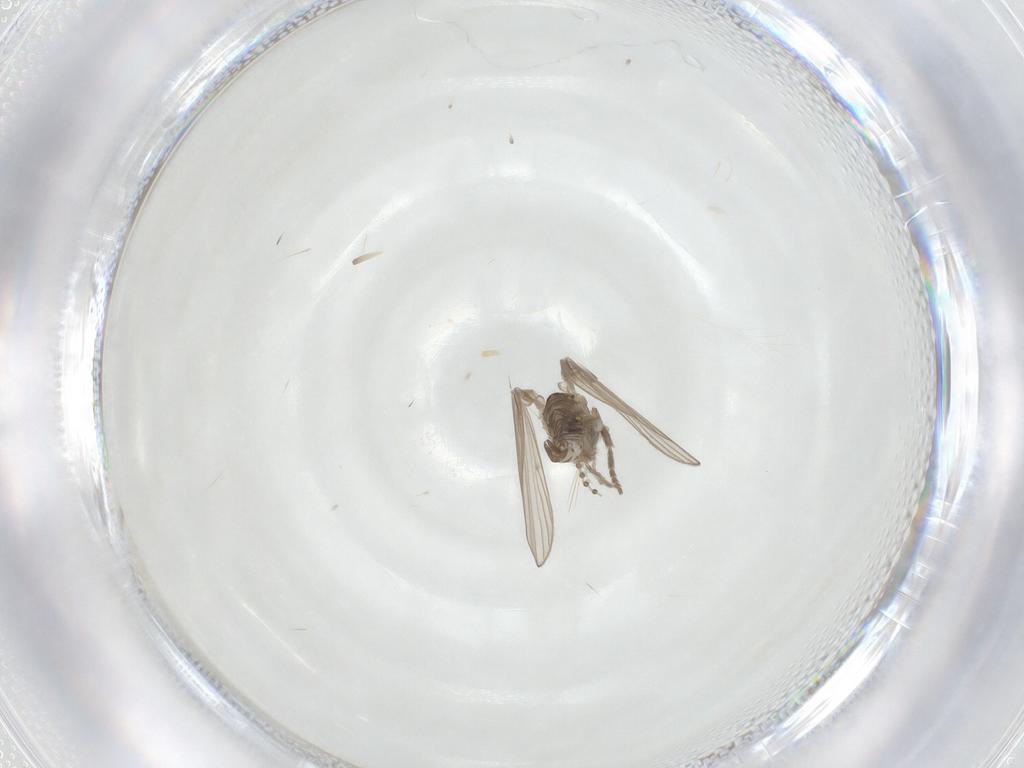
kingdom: Animalia
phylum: Arthropoda
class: Insecta
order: Diptera
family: Psychodidae
